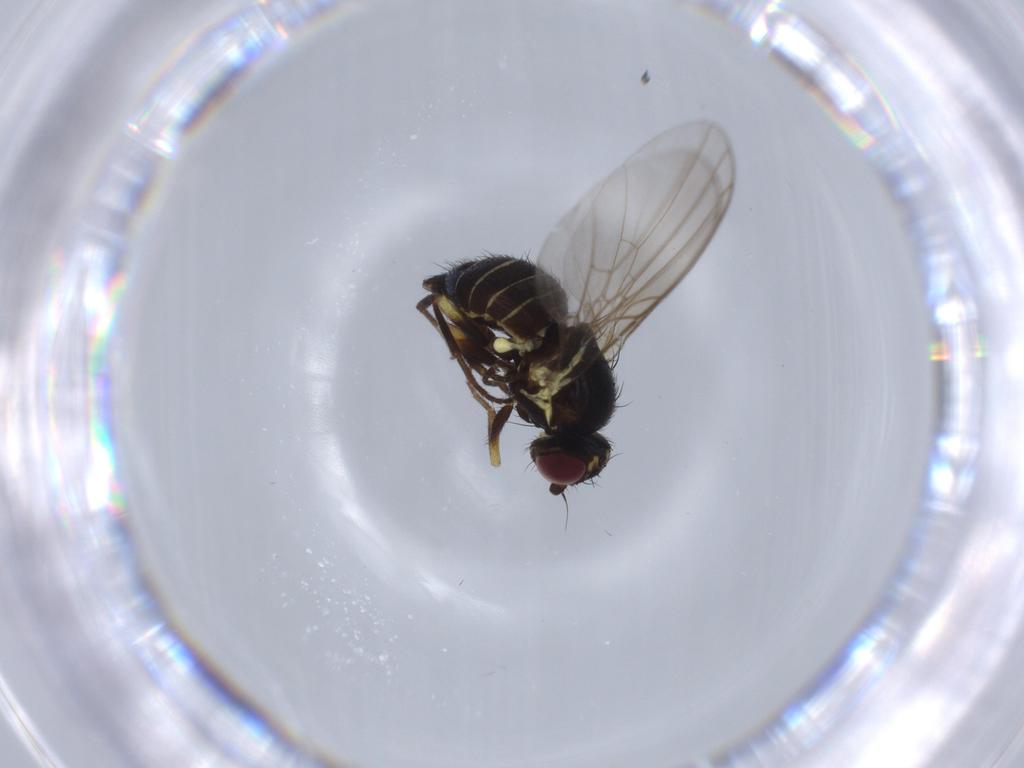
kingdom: Animalia
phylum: Arthropoda
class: Insecta
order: Diptera
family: Agromyzidae
